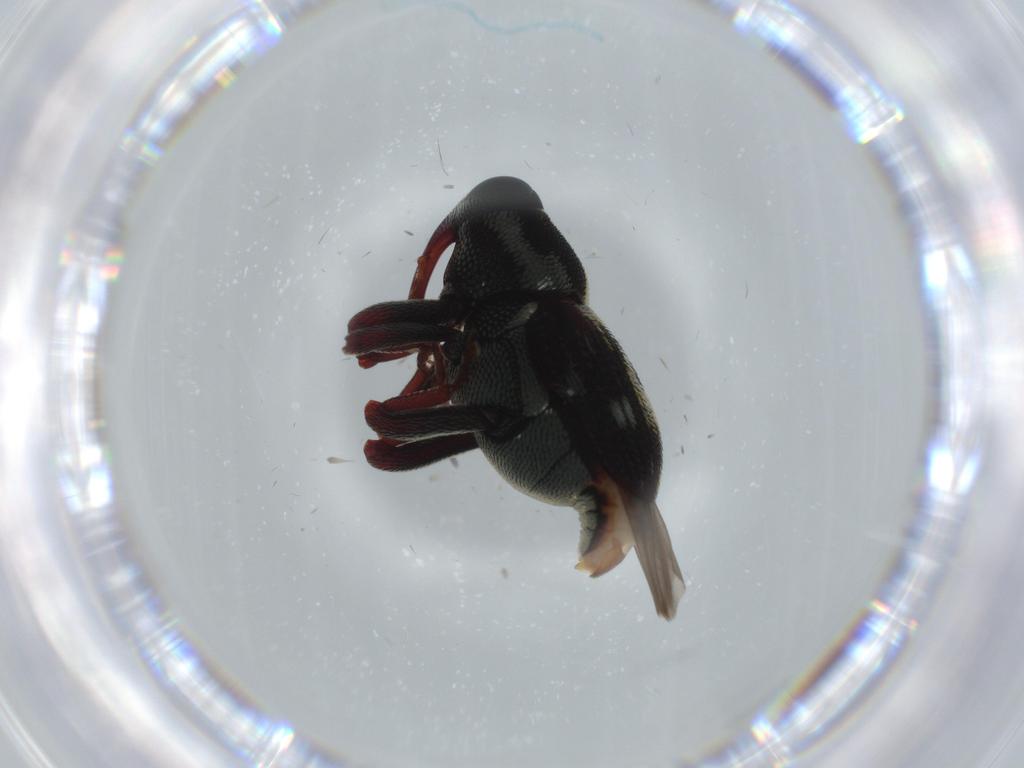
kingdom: Animalia
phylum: Arthropoda
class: Insecta
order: Coleoptera
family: Curculionidae
